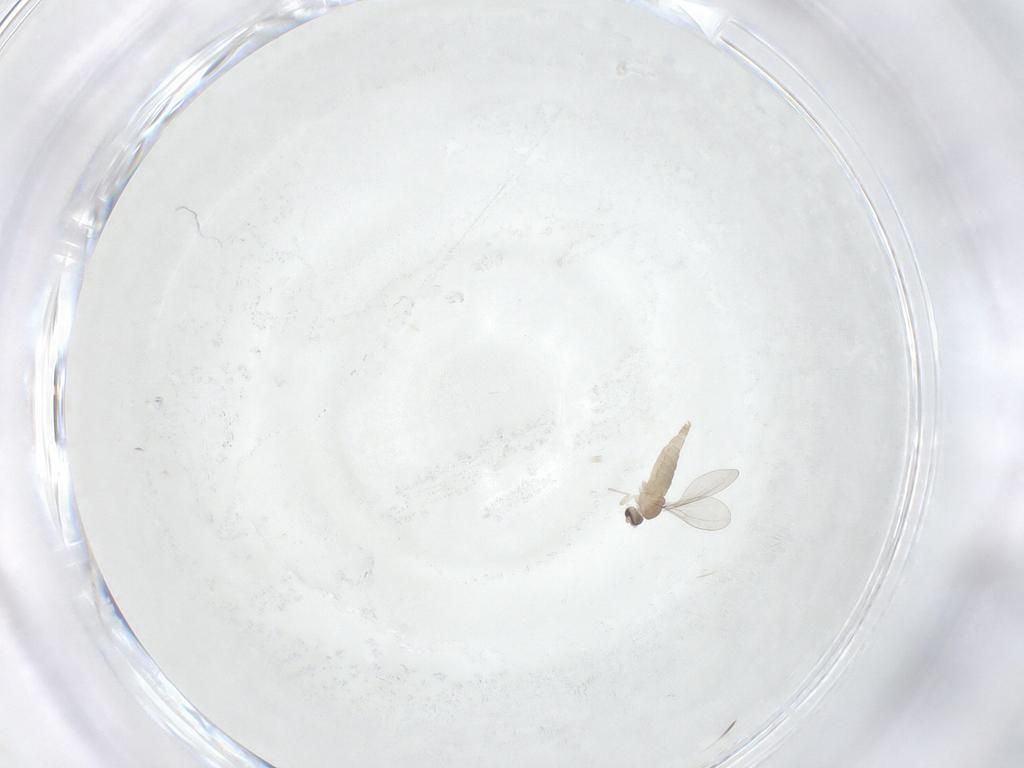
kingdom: Animalia
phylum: Arthropoda
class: Insecta
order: Diptera
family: Cecidomyiidae
